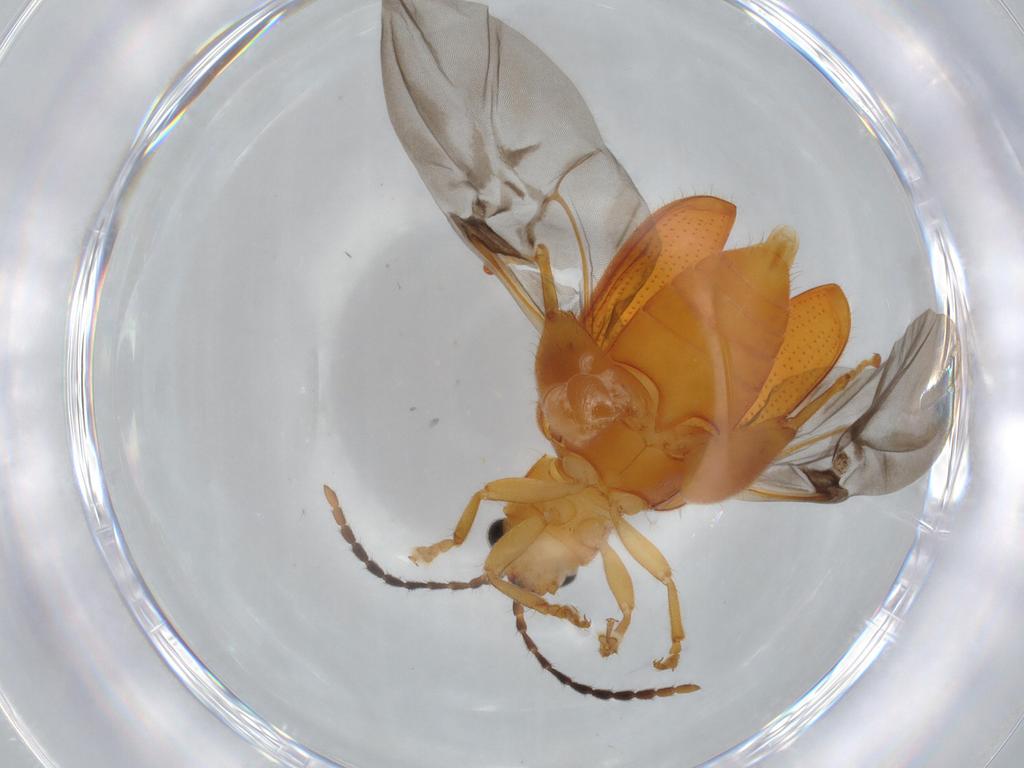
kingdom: Animalia
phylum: Arthropoda
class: Insecta
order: Coleoptera
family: Chrysomelidae
